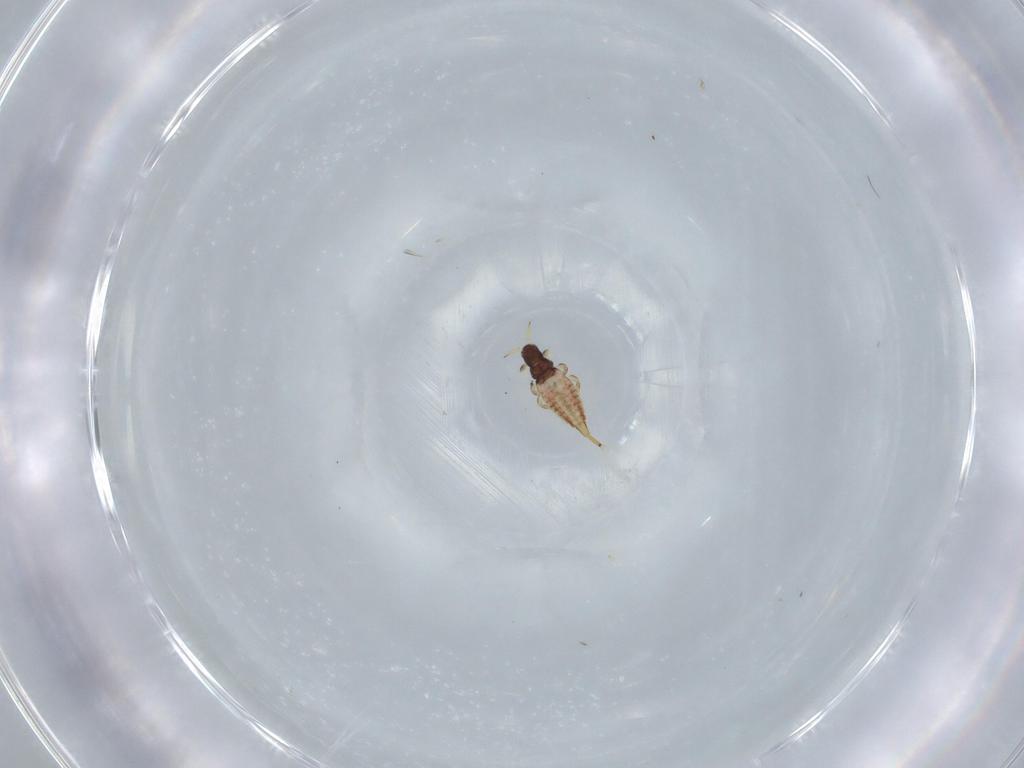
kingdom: Animalia
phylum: Arthropoda
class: Insecta
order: Thysanoptera
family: Phlaeothripidae
